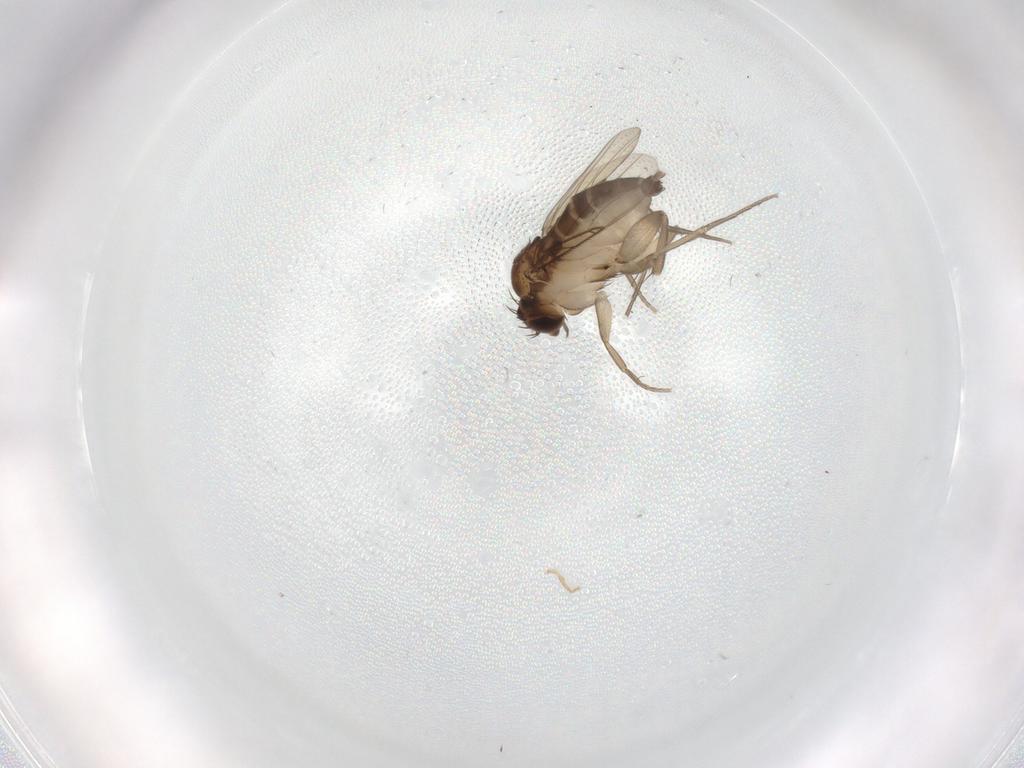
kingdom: Animalia
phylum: Arthropoda
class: Insecta
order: Diptera
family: Phoridae
